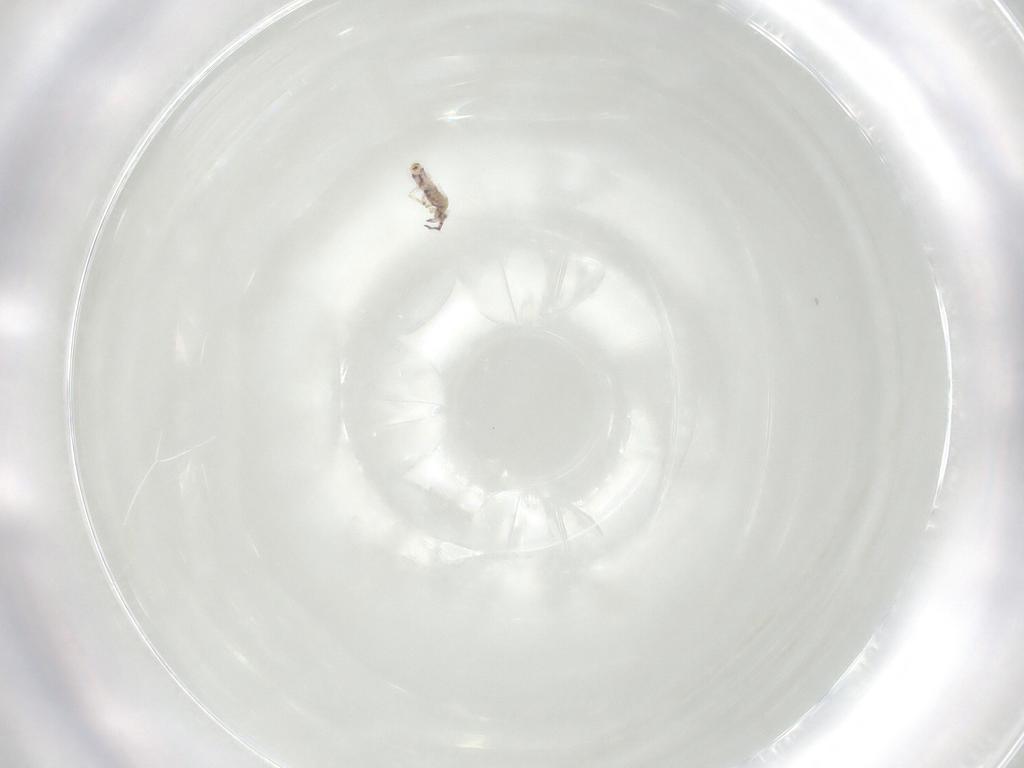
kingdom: Animalia
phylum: Arthropoda
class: Collembola
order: Entomobryomorpha
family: Entomobryidae
